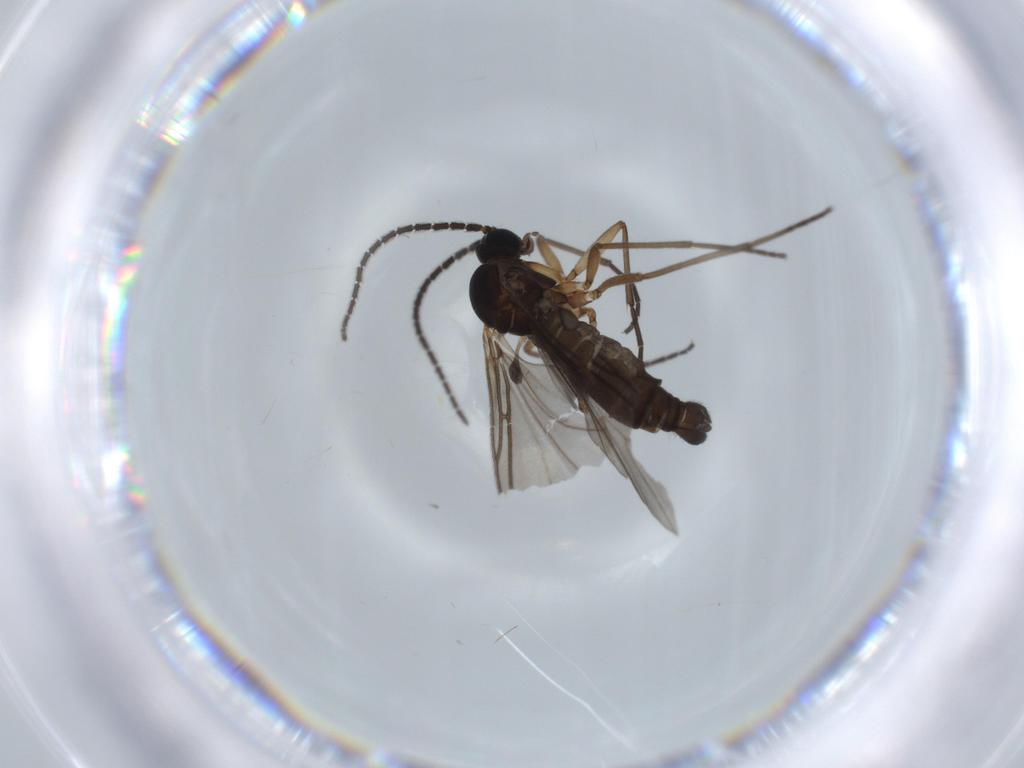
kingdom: Animalia
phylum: Arthropoda
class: Insecta
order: Diptera
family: Sciaridae
